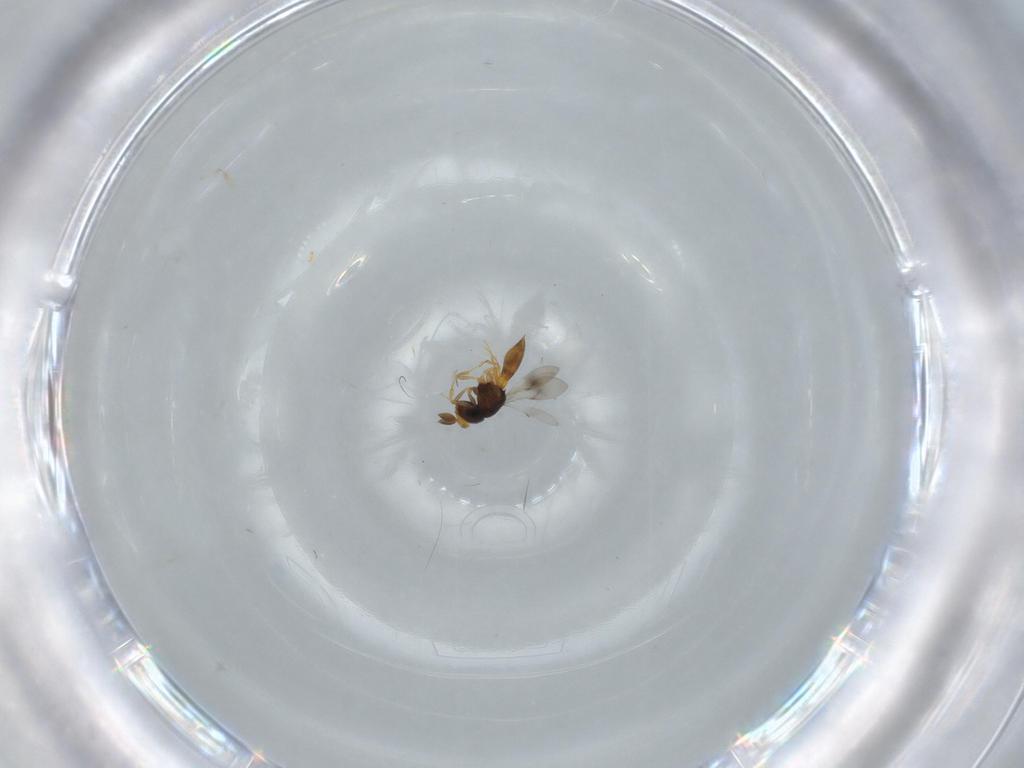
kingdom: Animalia
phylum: Arthropoda
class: Insecta
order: Hymenoptera
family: Scelionidae
